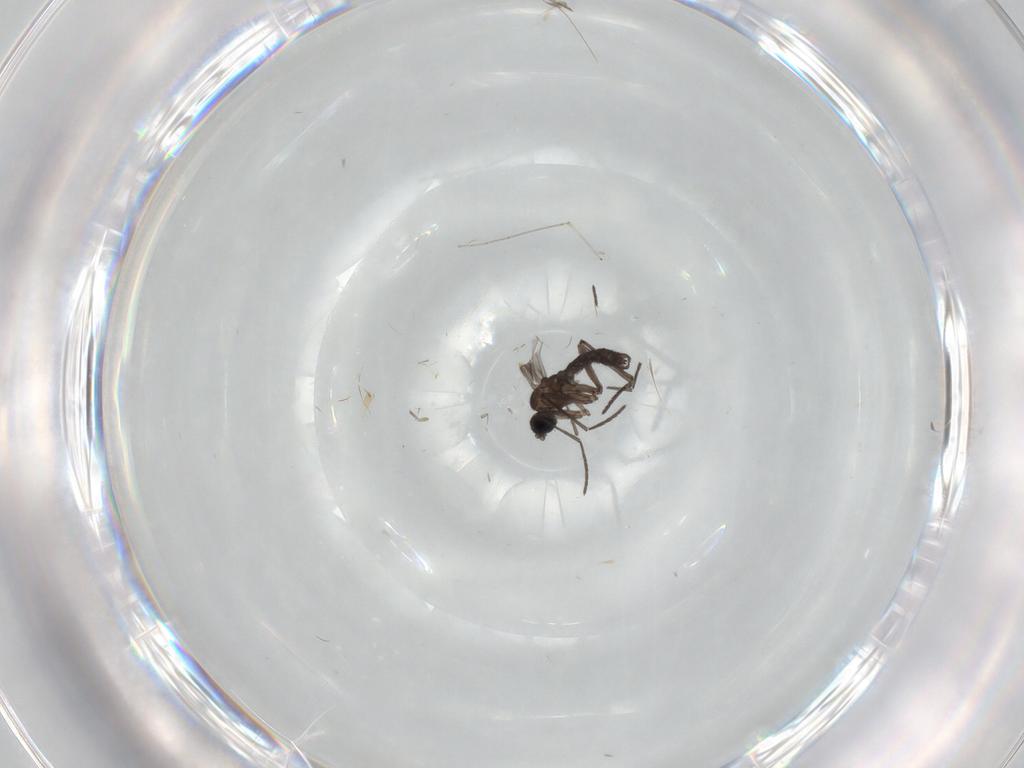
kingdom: Animalia
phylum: Arthropoda
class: Insecta
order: Diptera
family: Cecidomyiidae
